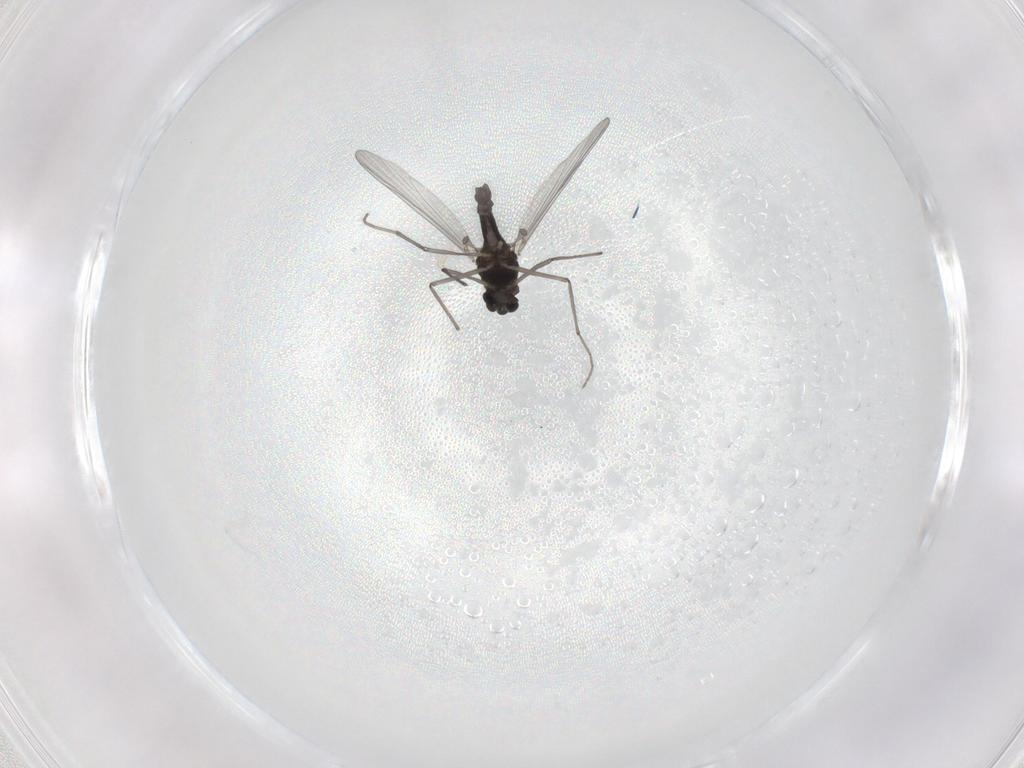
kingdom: Animalia
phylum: Arthropoda
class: Insecta
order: Diptera
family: Chironomidae
